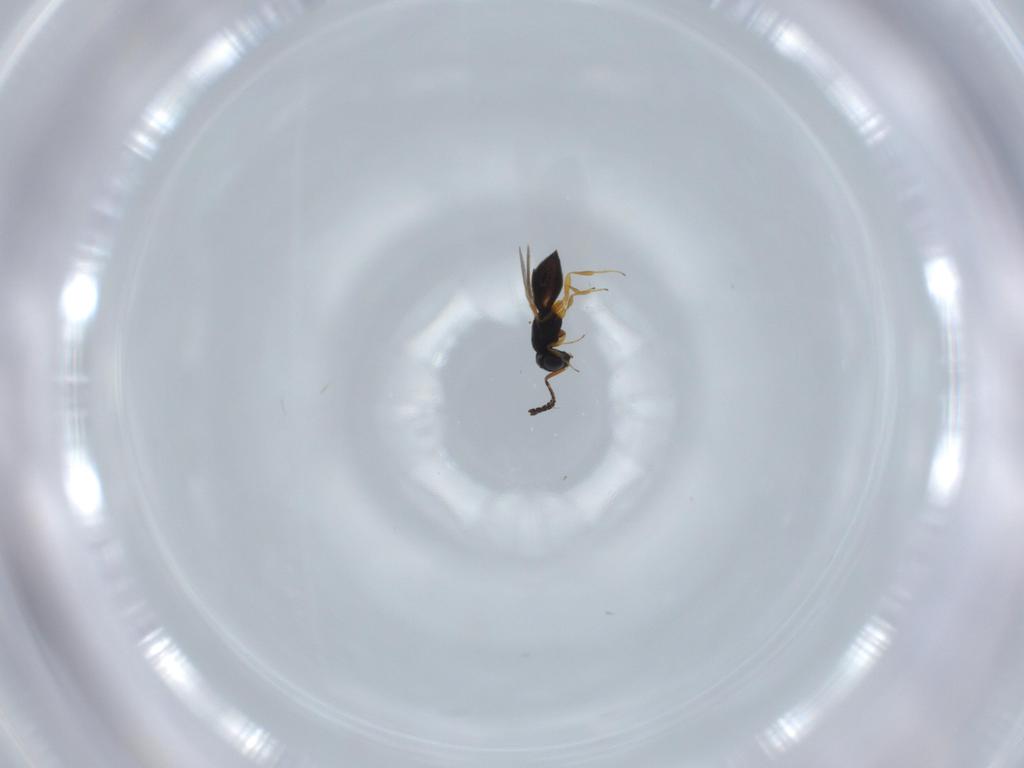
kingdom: Animalia
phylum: Arthropoda
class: Insecta
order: Hymenoptera
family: Scelionidae
